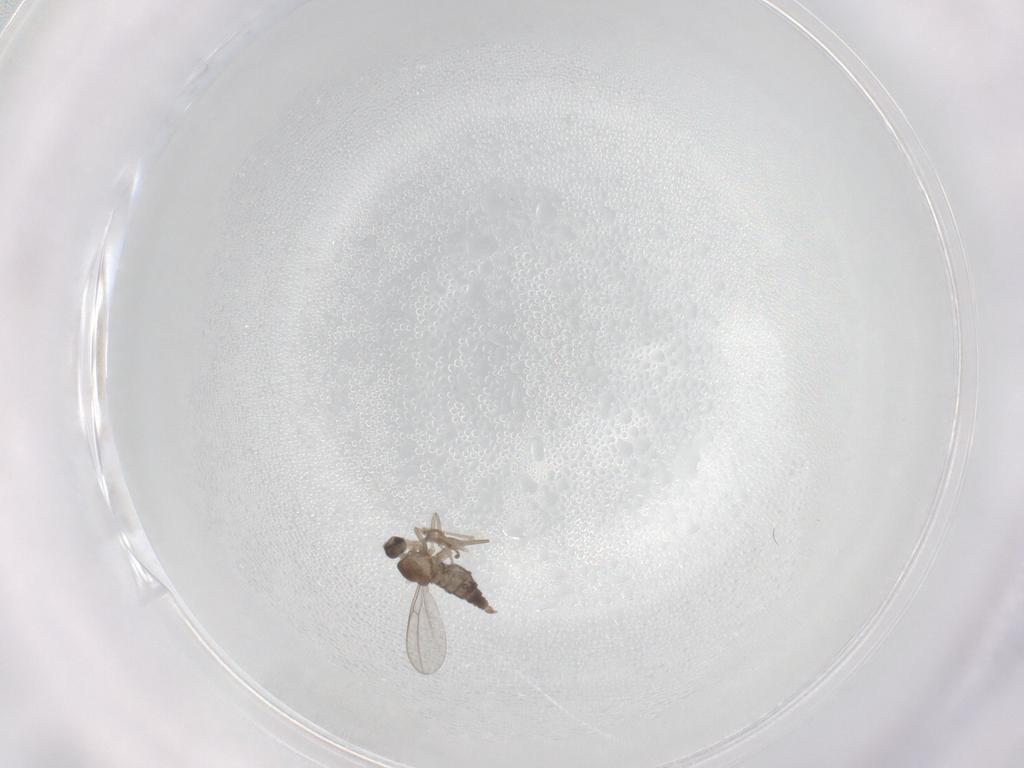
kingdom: Animalia
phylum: Arthropoda
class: Insecta
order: Diptera
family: Cecidomyiidae
